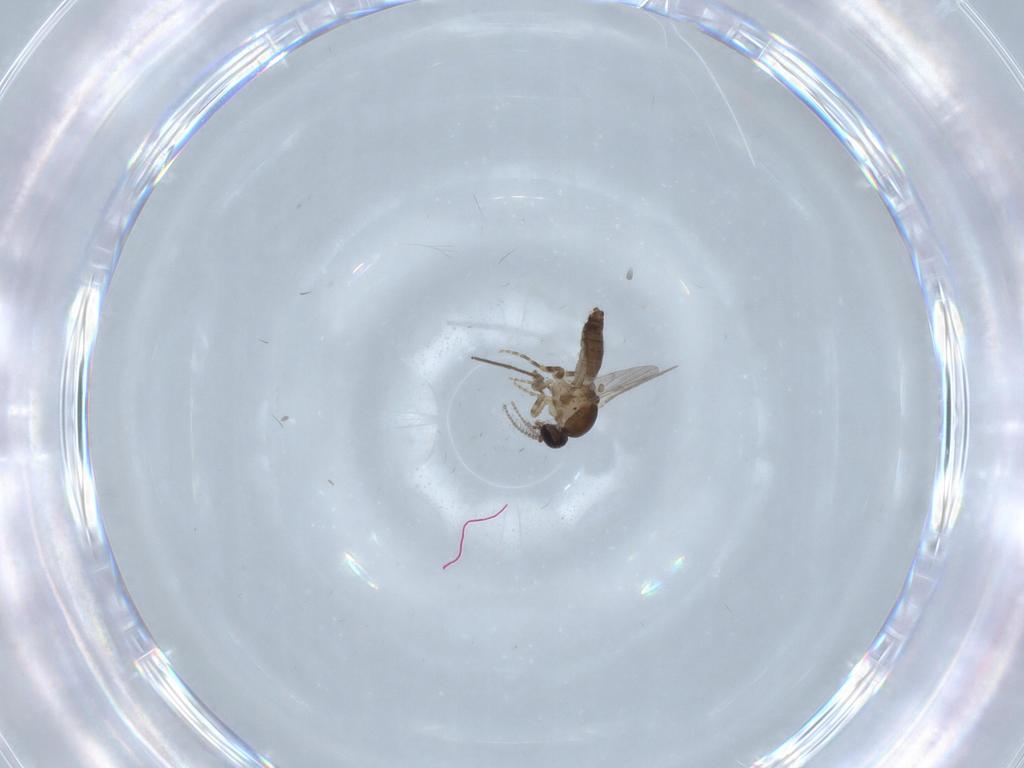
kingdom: Animalia
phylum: Arthropoda
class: Insecta
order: Diptera
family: Ceratopogonidae
